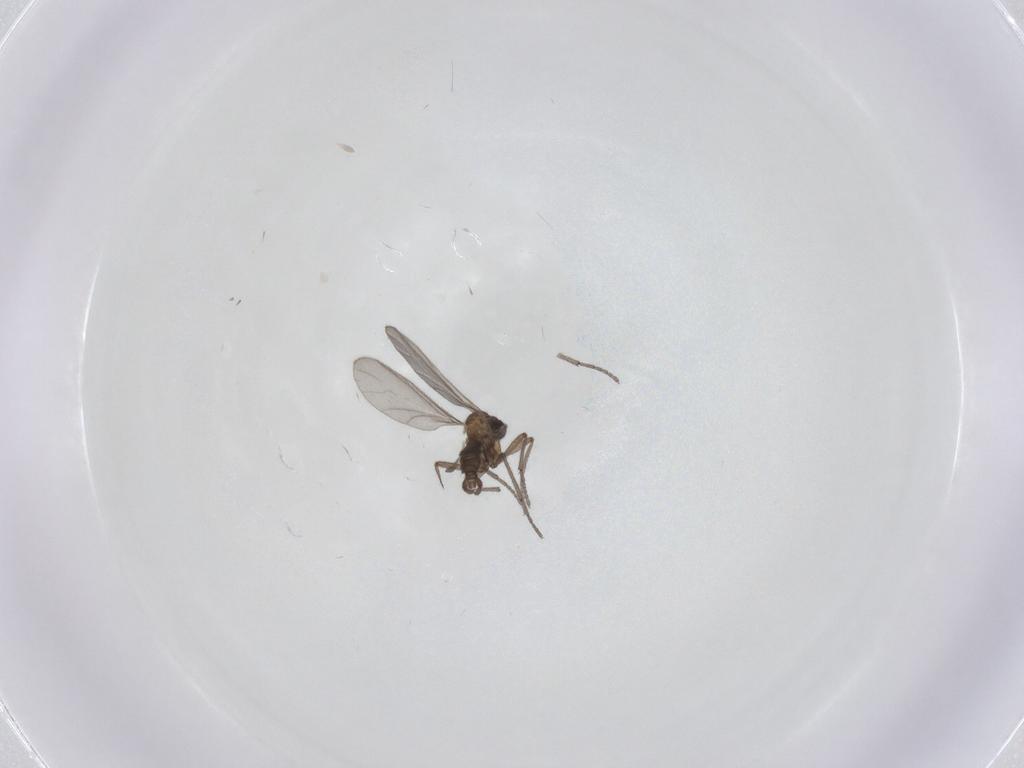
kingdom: Animalia
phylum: Arthropoda
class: Insecta
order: Diptera
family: Sciaridae
